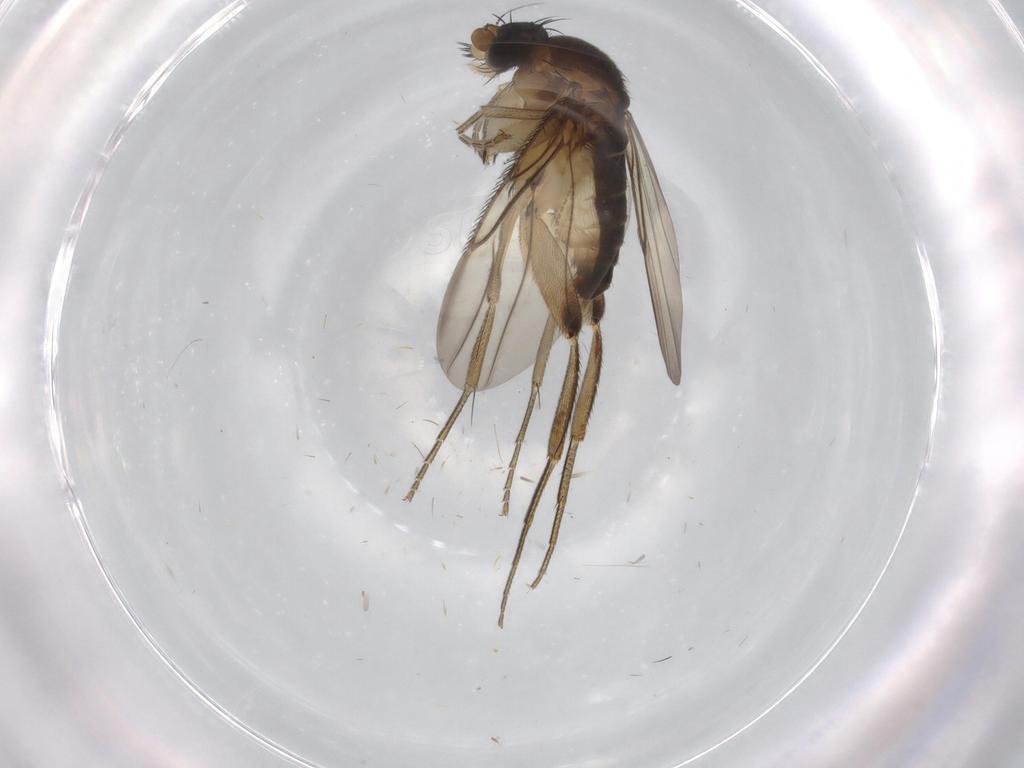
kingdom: Animalia
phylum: Arthropoda
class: Insecta
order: Diptera
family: Phoridae
